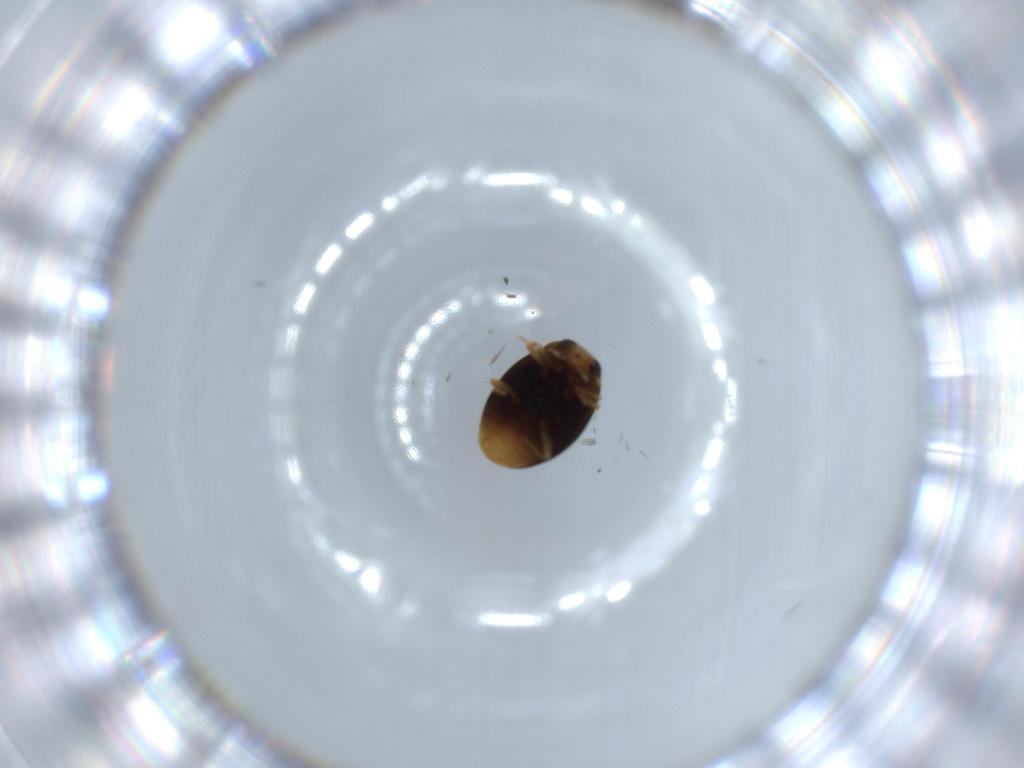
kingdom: Animalia
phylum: Arthropoda
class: Insecta
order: Coleoptera
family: Coccinellidae
